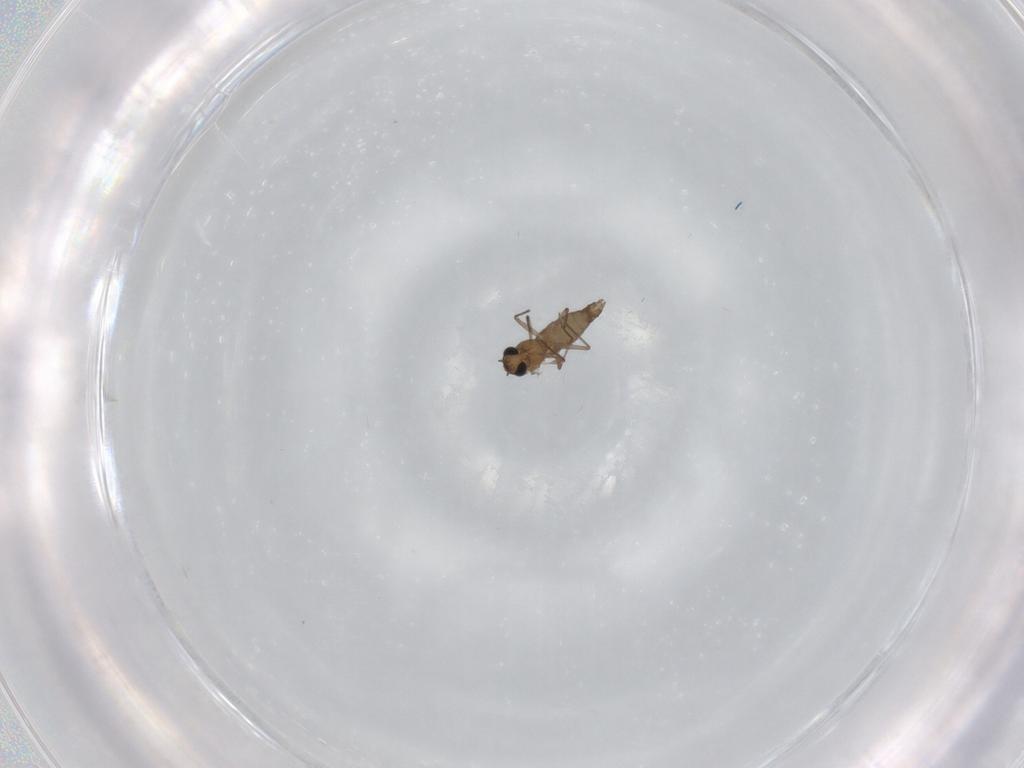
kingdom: Animalia
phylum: Arthropoda
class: Insecta
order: Diptera
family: Chironomidae
